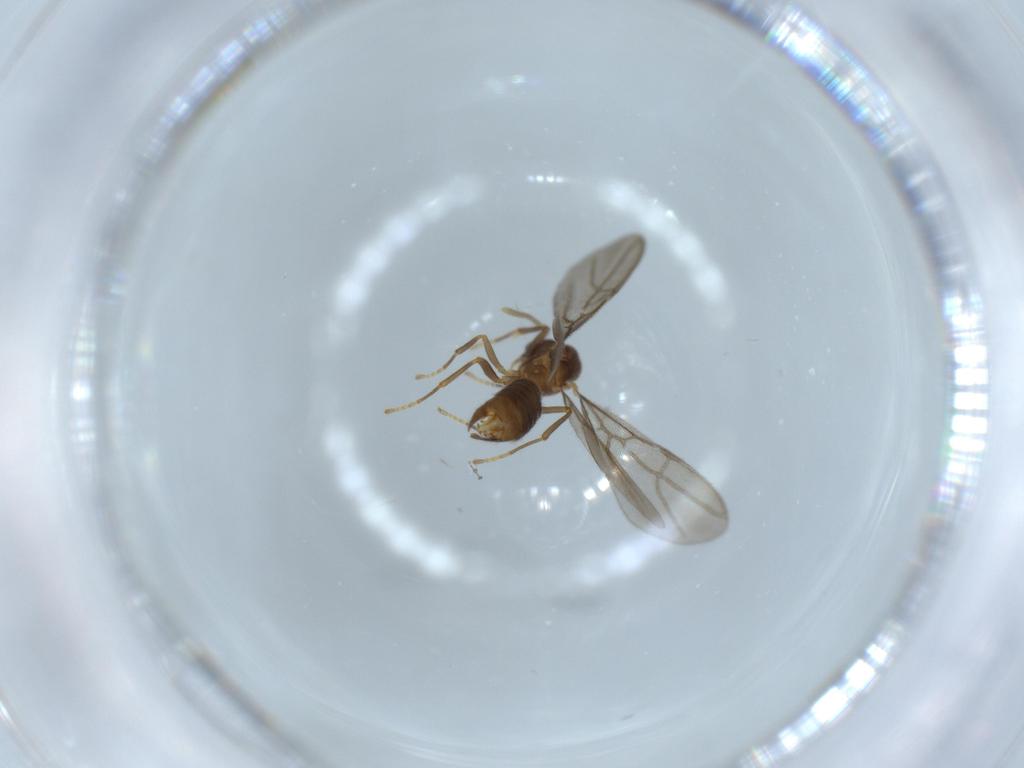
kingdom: Animalia
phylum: Arthropoda
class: Insecta
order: Hymenoptera
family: Formicidae
